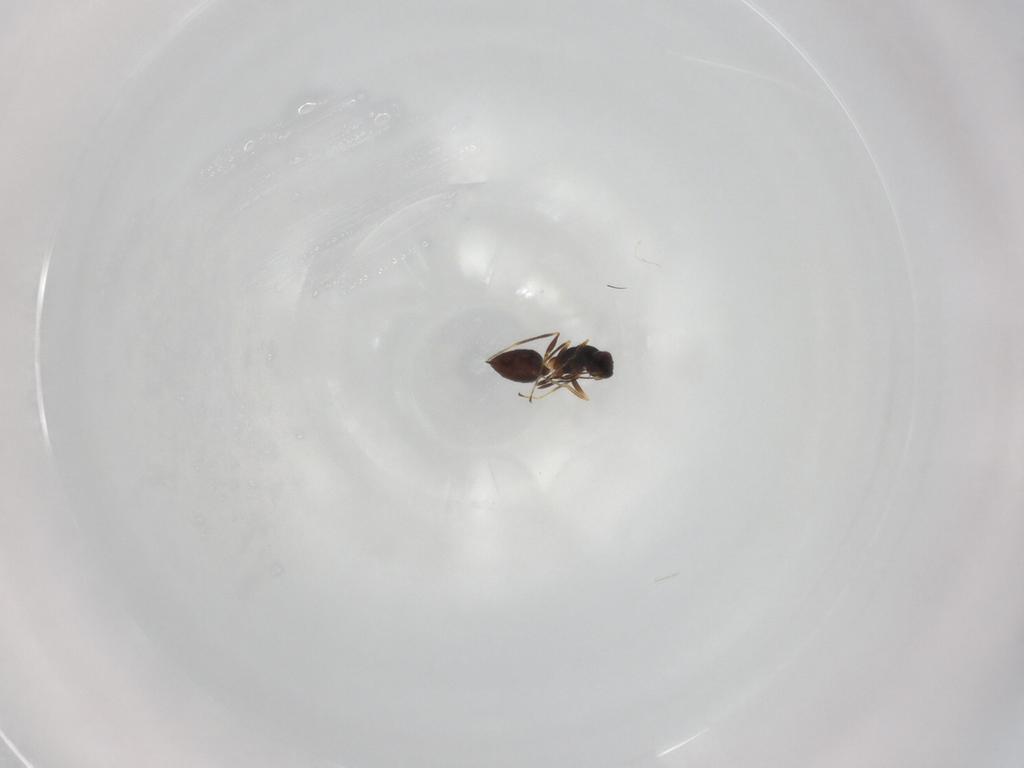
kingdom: Animalia
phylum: Arthropoda
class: Insecta
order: Hymenoptera
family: Mymaridae
